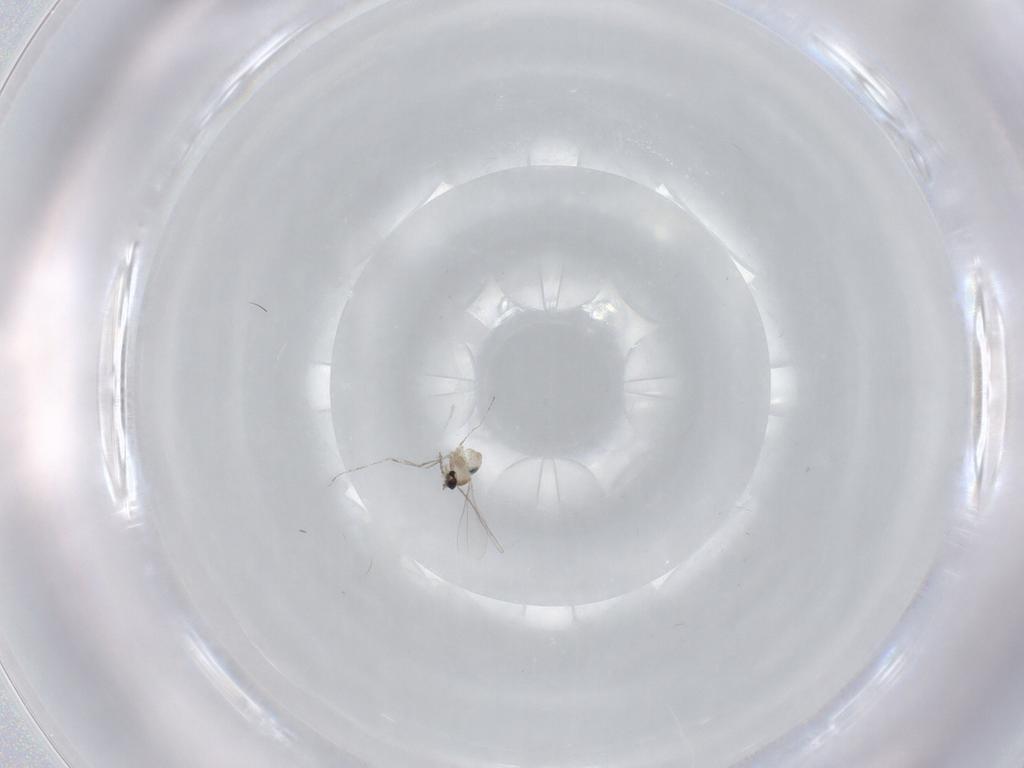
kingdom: Animalia
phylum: Arthropoda
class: Insecta
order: Diptera
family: Cecidomyiidae
